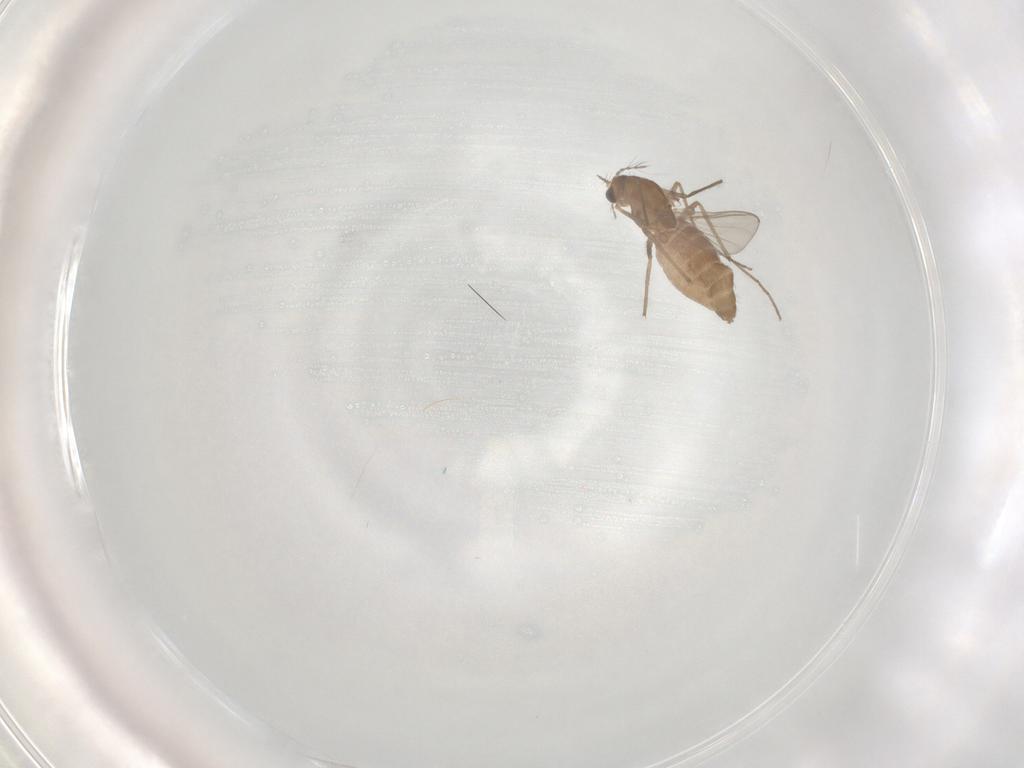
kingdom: Animalia
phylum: Arthropoda
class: Insecta
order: Diptera
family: Chironomidae
